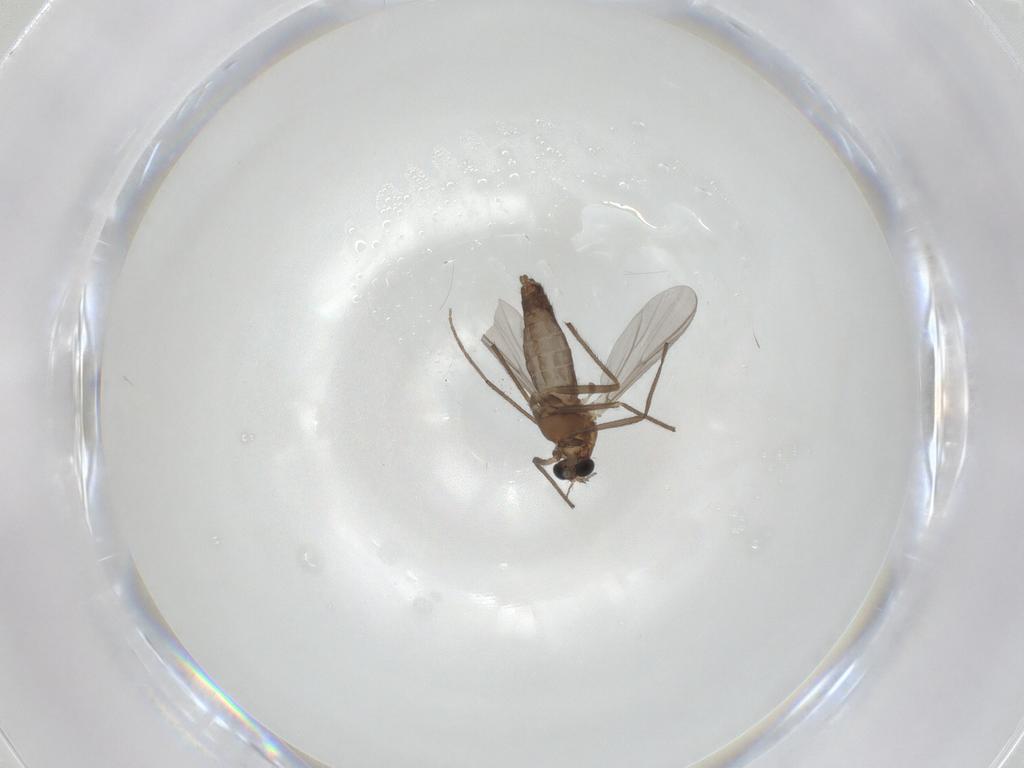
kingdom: Animalia
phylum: Arthropoda
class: Insecta
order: Diptera
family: Chironomidae
